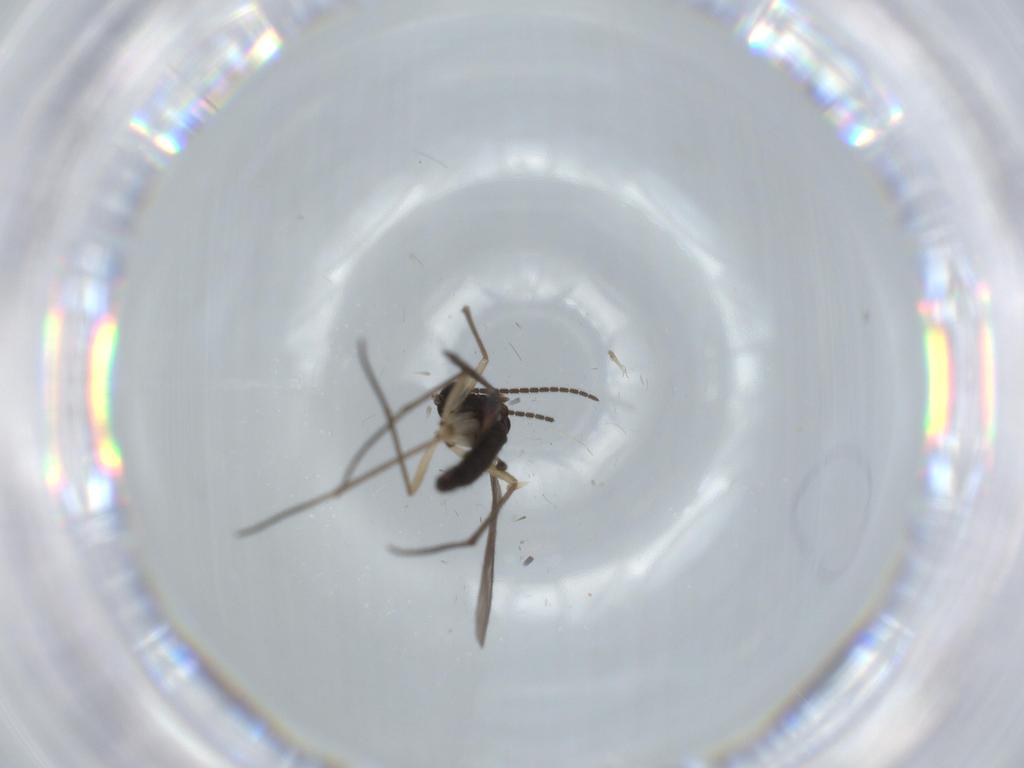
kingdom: Animalia
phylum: Arthropoda
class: Insecta
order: Diptera
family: Sciaridae
